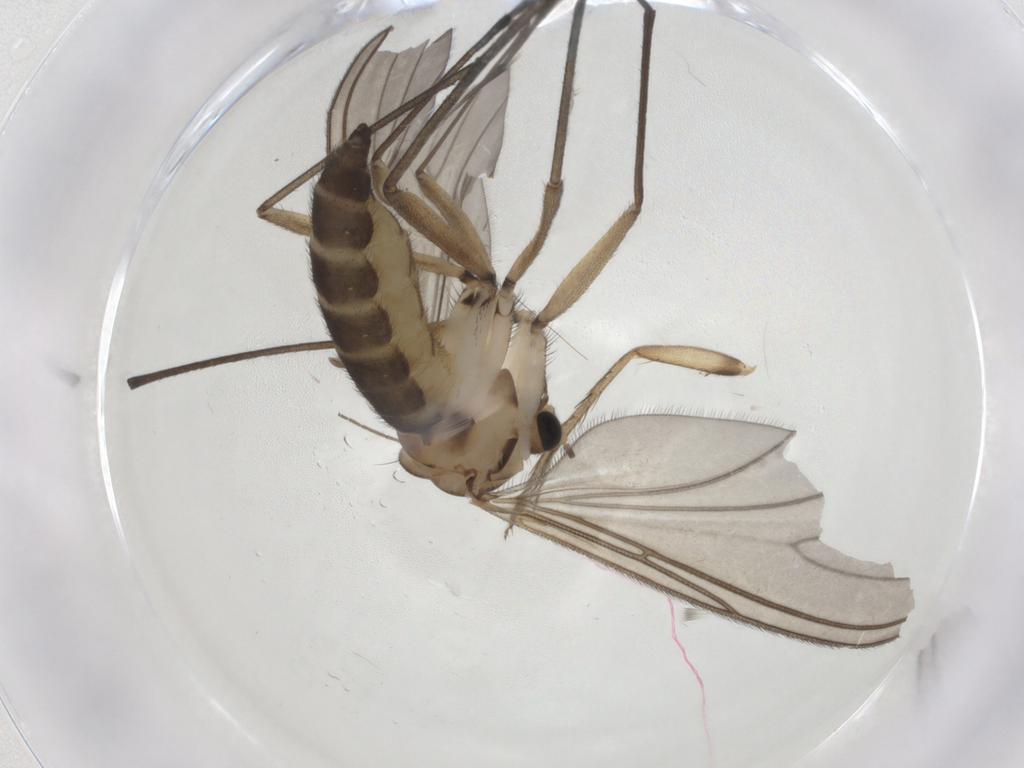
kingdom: Animalia
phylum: Arthropoda
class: Insecta
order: Diptera
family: Sciaridae
